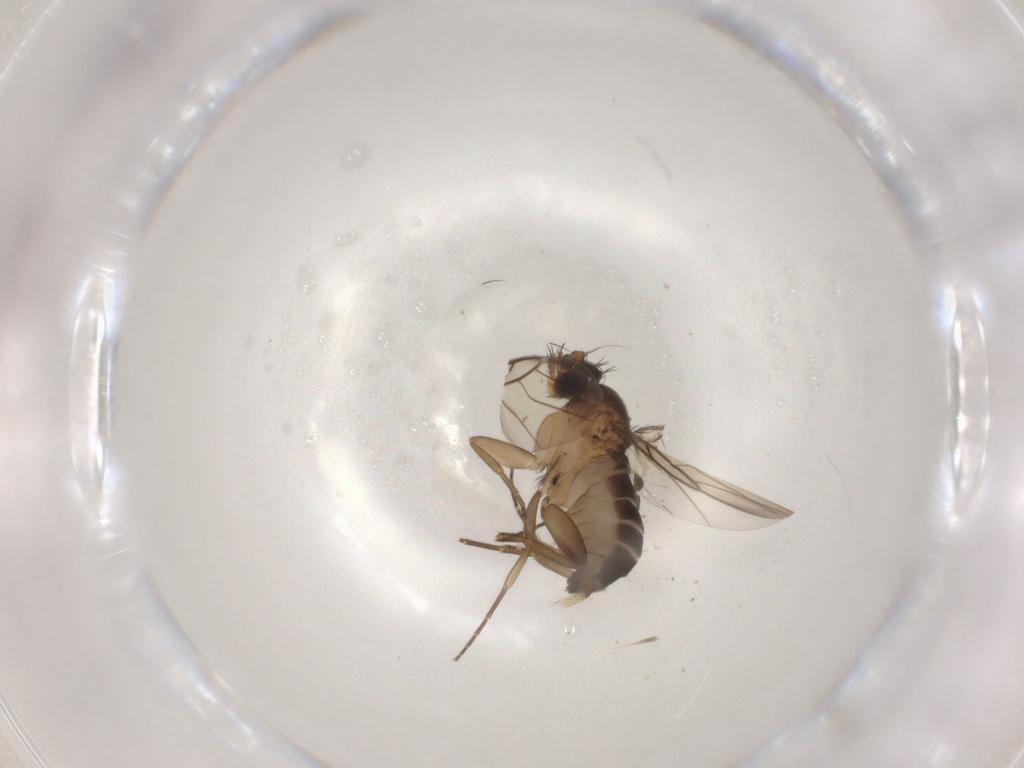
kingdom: Animalia
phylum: Arthropoda
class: Insecta
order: Diptera
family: Phoridae
